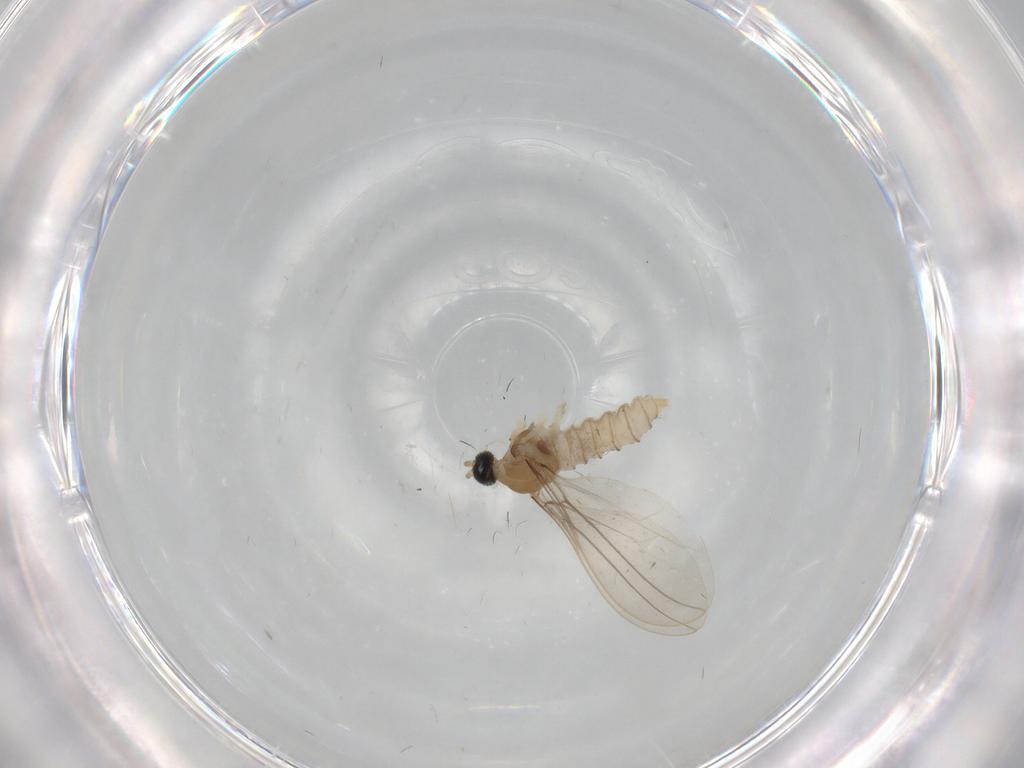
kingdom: Animalia
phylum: Arthropoda
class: Insecta
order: Diptera
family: Cecidomyiidae
